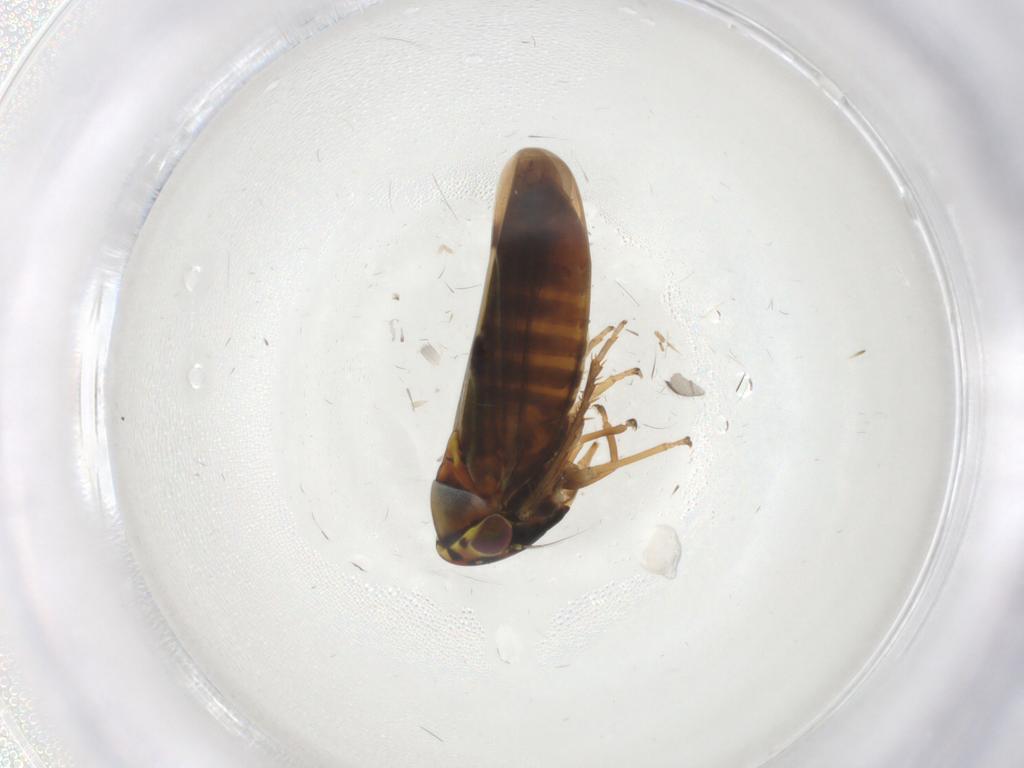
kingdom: Animalia
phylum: Arthropoda
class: Insecta
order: Hemiptera
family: Cicadellidae
